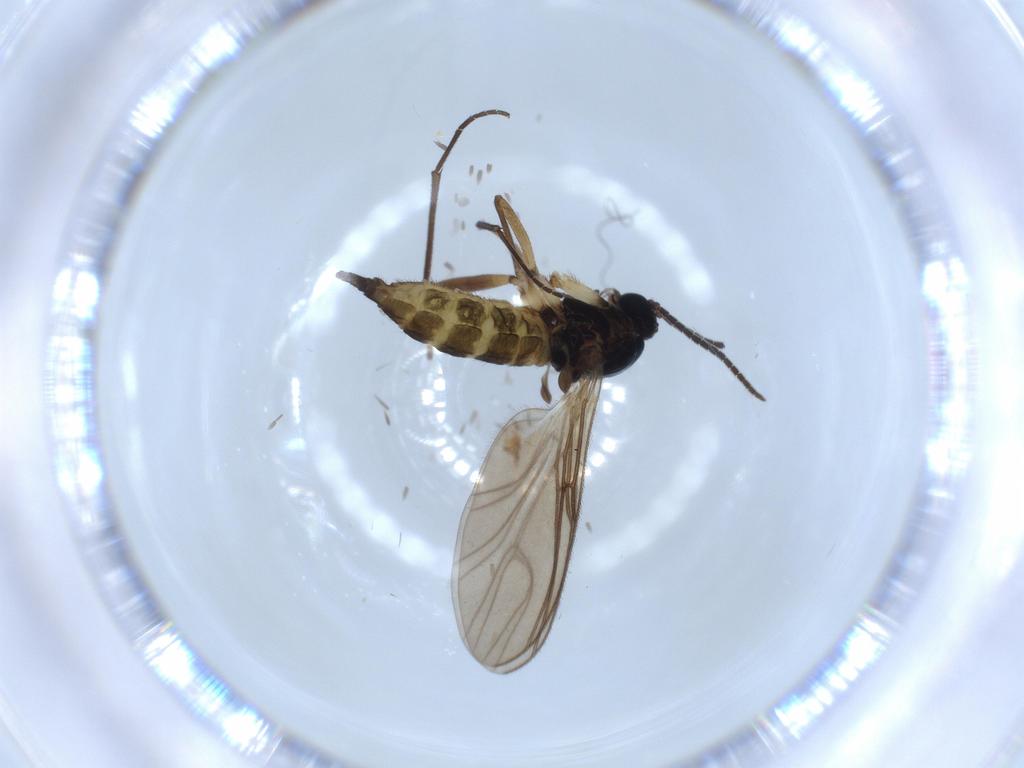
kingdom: Animalia
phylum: Arthropoda
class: Insecta
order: Diptera
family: Sciaridae
